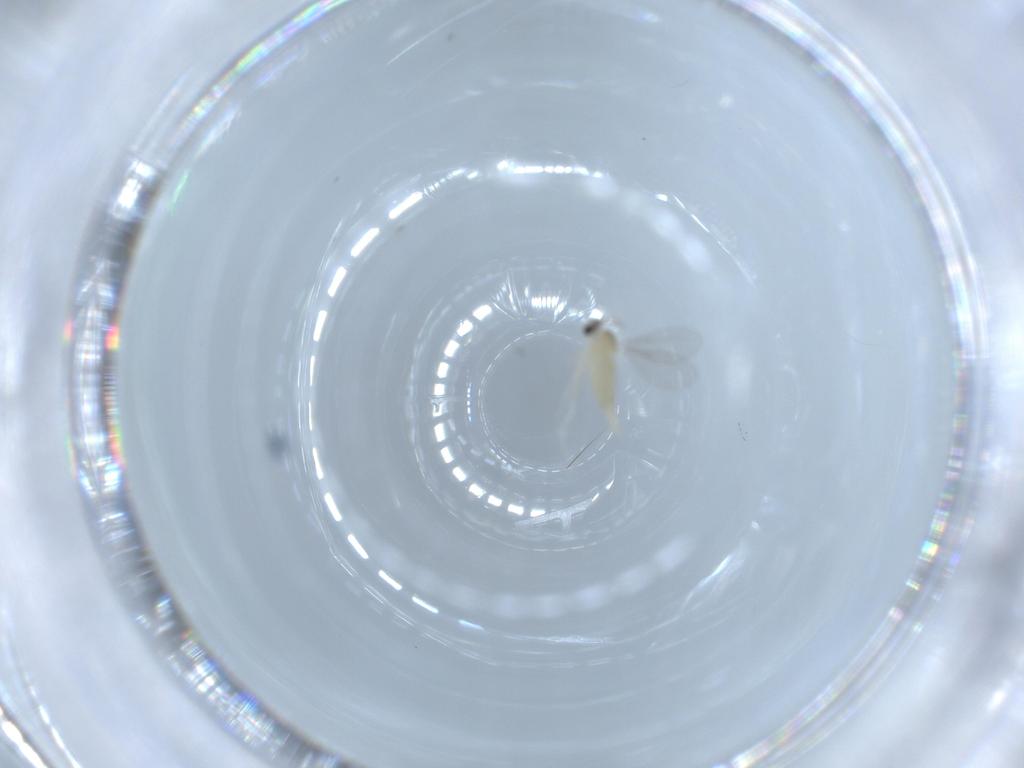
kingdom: Animalia
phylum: Arthropoda
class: Insecta
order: Diptera
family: Cecidomyiidae
